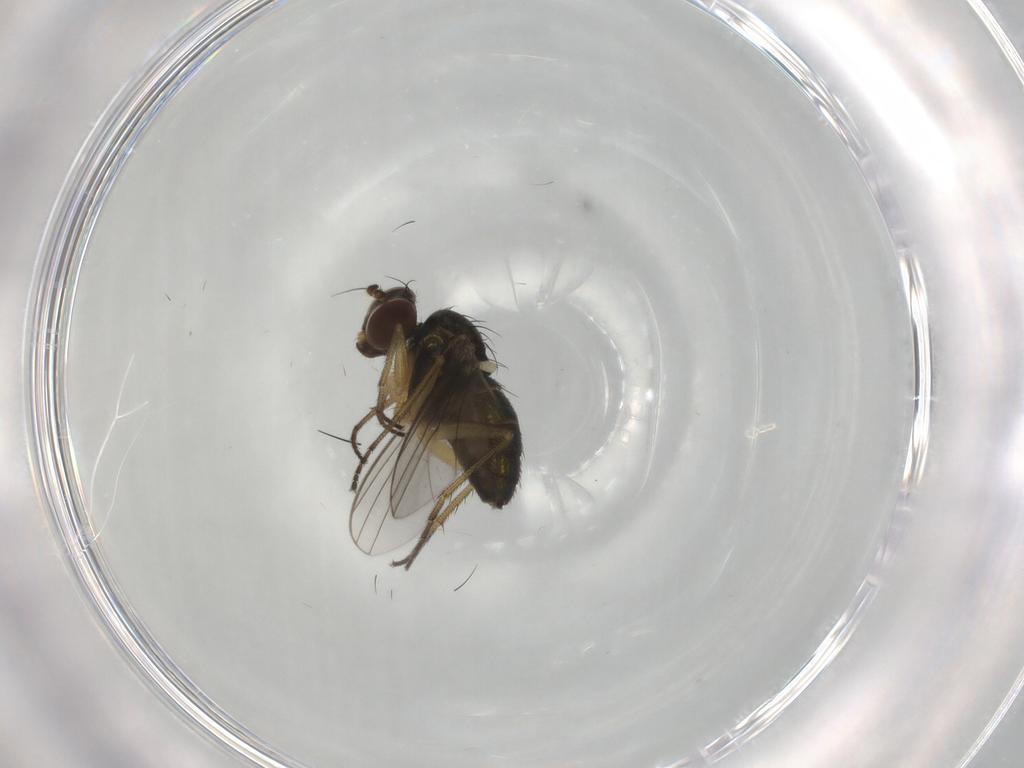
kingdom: Animalia
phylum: Arthropoda
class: Insecta
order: Diptera
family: Dolichopodidae
